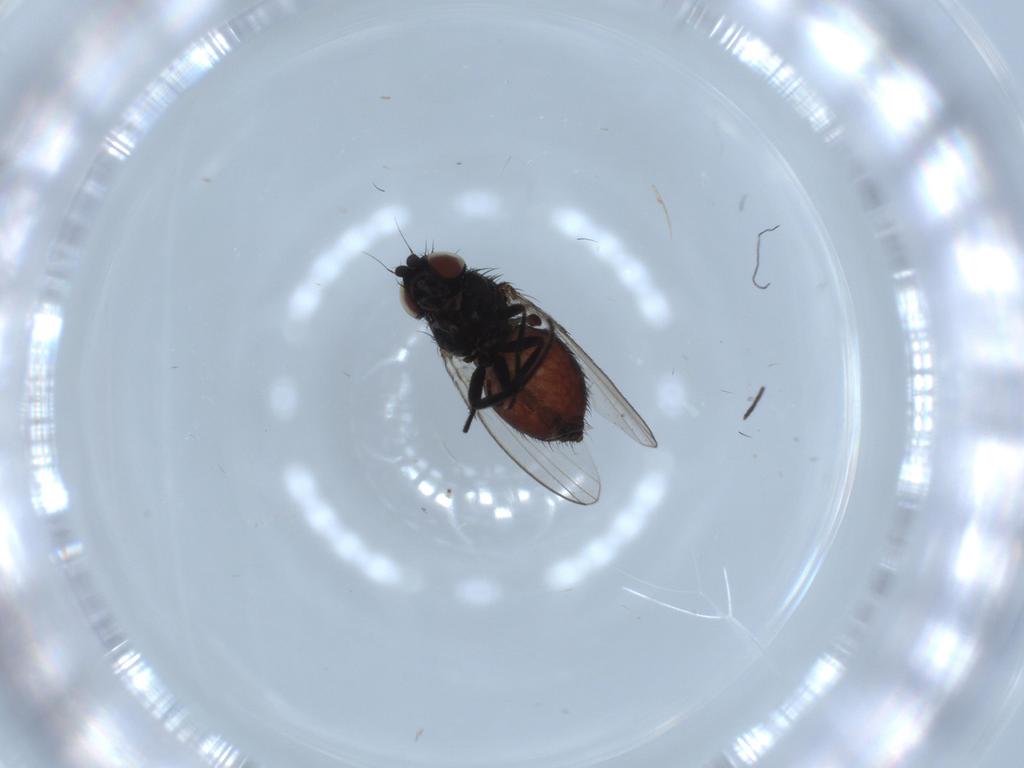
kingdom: Animalia
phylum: Arthropoda
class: Insecta
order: Diptera
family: Milichiidae
